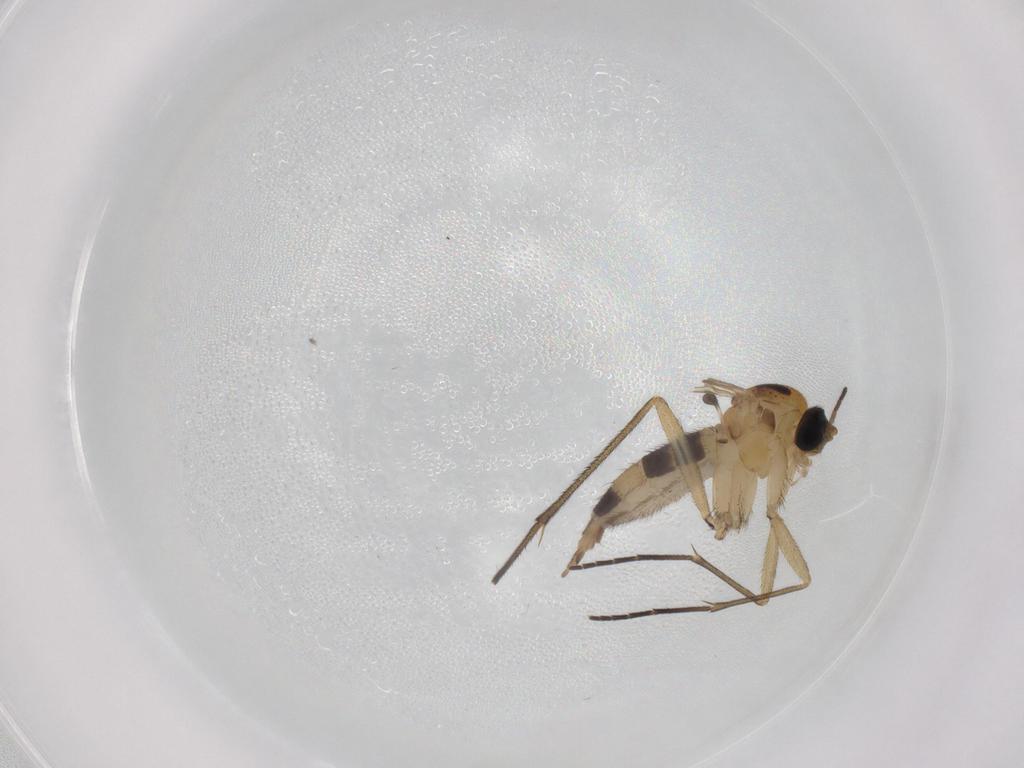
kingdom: Animalia
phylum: Arthropoda
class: Insecta
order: Diptera
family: Sciaridae
